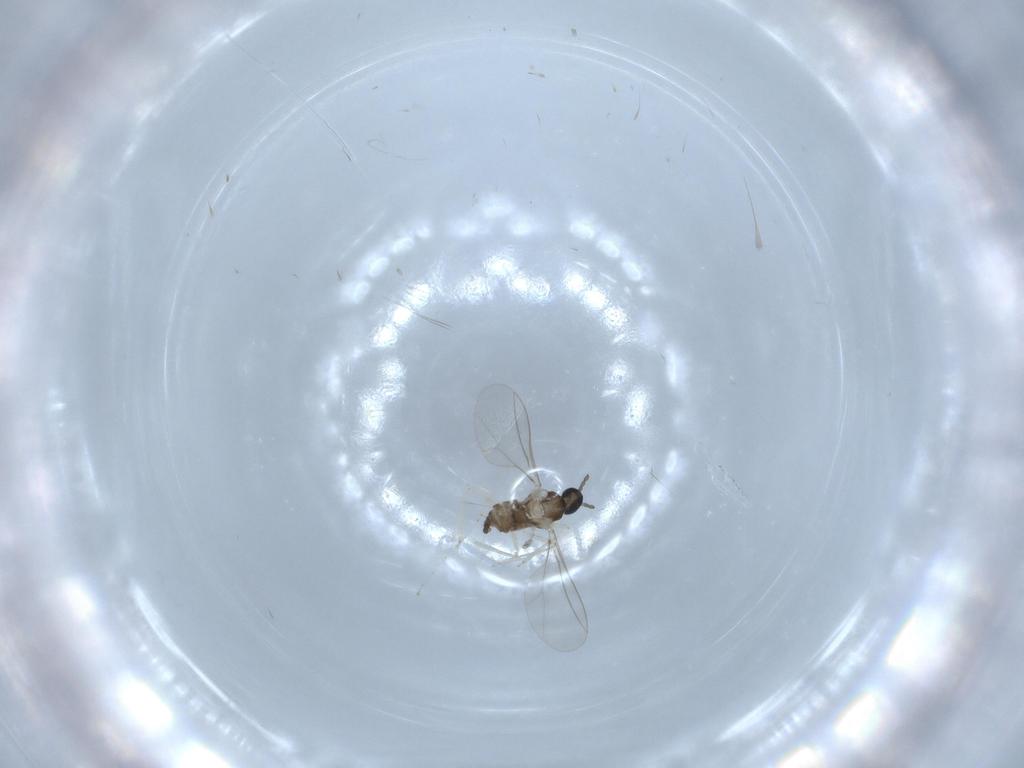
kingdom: Animalia
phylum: Arthropoda
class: Insecta
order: Diptera
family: Cecidomyiidae
